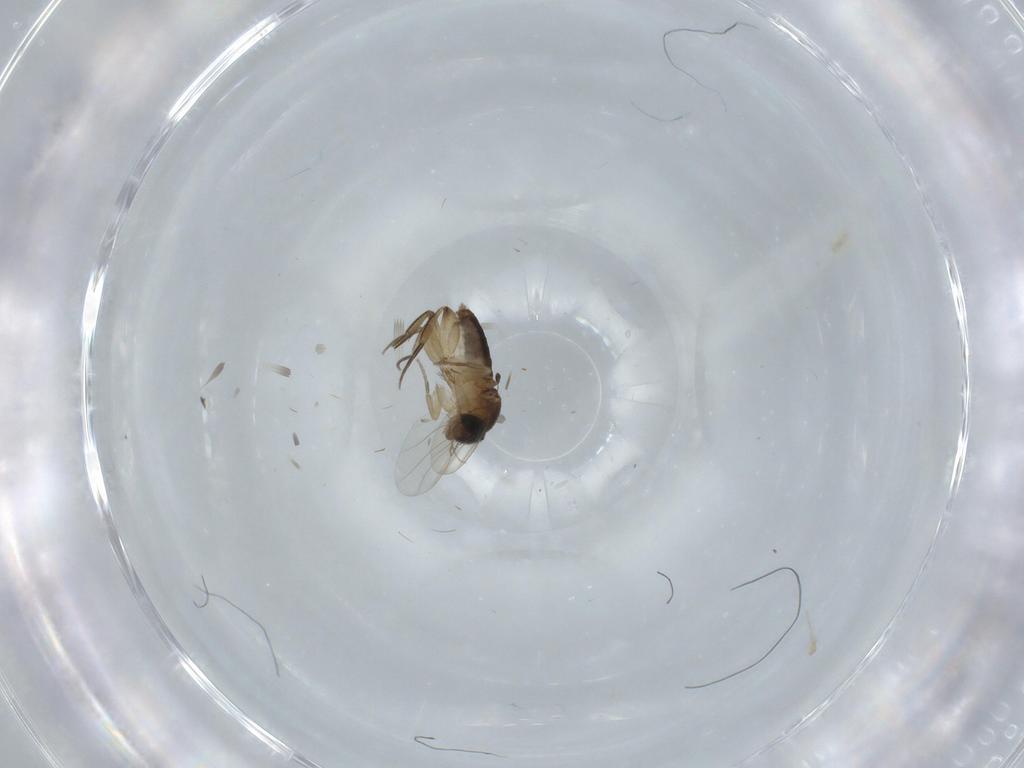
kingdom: Animalia
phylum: Arthropoda
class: Insecta
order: Diptera
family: Phoridae
